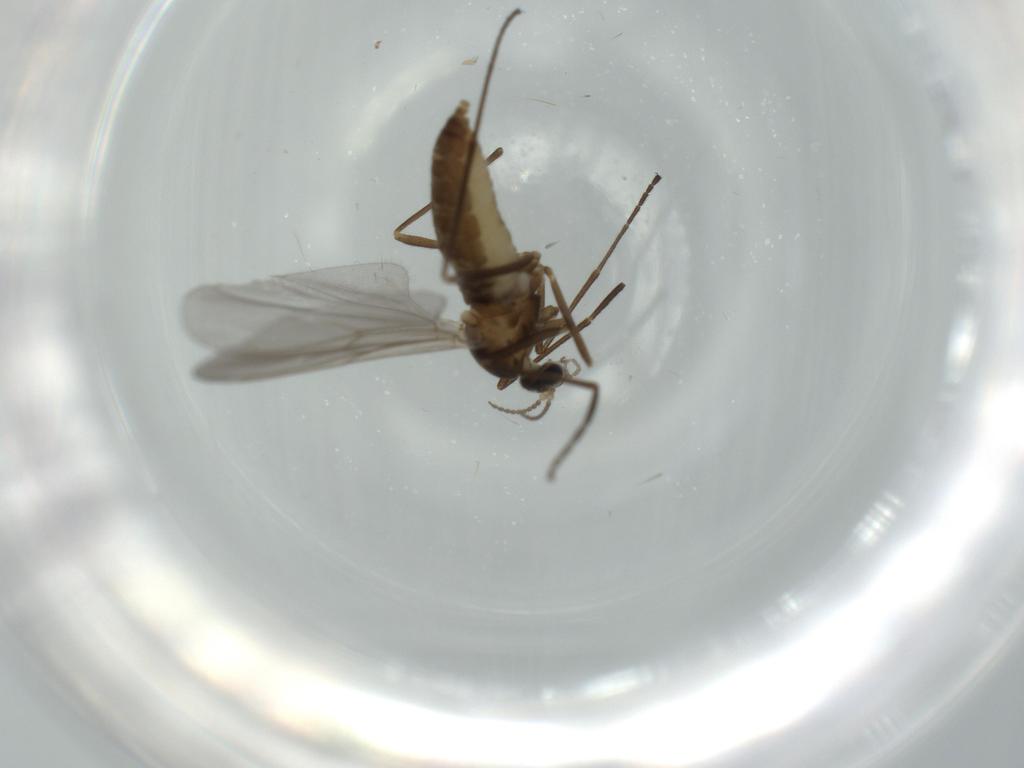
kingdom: Animalia
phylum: Arthropoda
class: Insecta
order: Diptera
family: Cecidomyiidae
